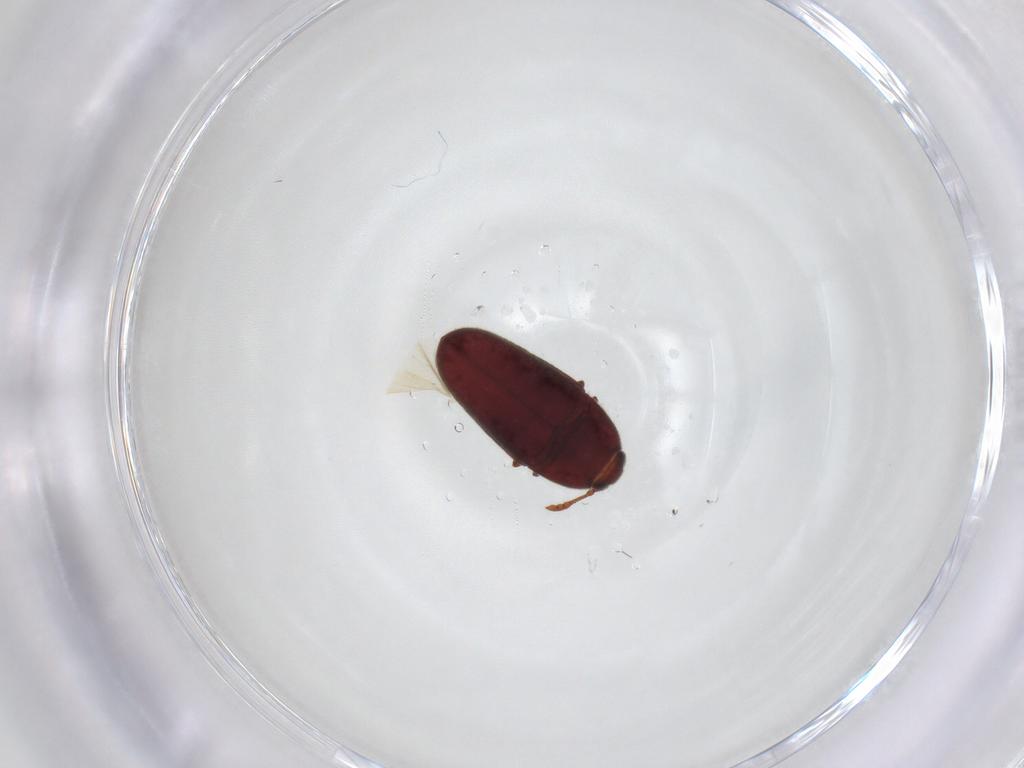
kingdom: Animalia
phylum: Arthropoda
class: Insecta
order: Coleoptera
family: Throscidae
